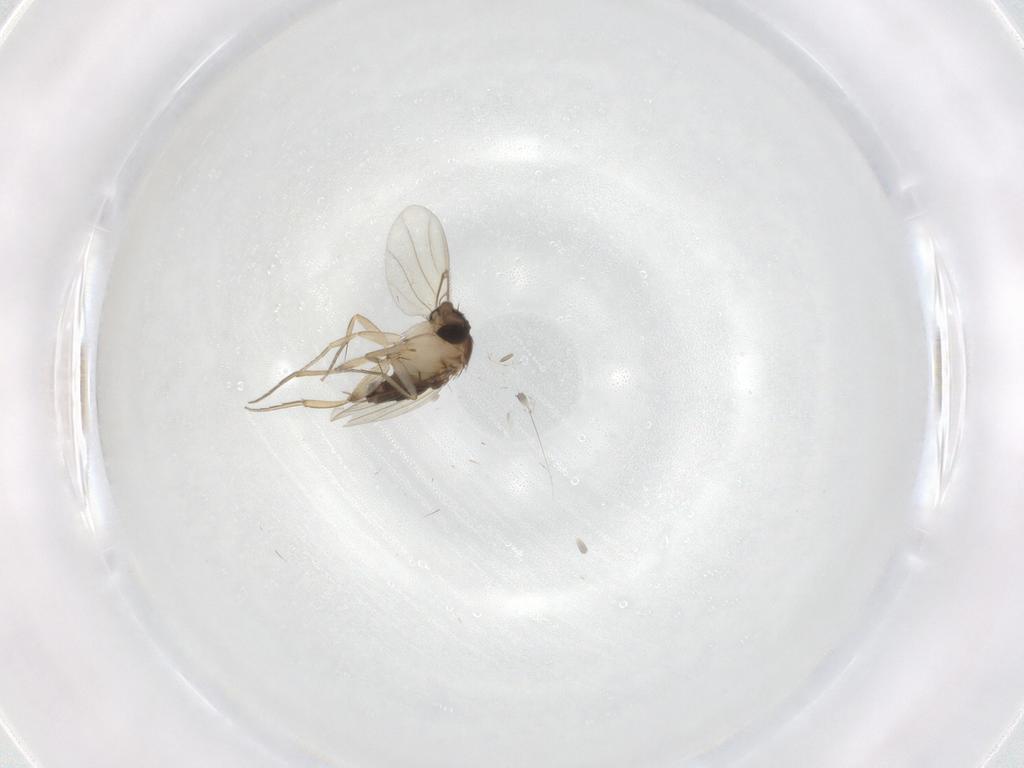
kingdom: Animalia
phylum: Arthropoda
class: Insecta
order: Diptera
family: Phoridae
